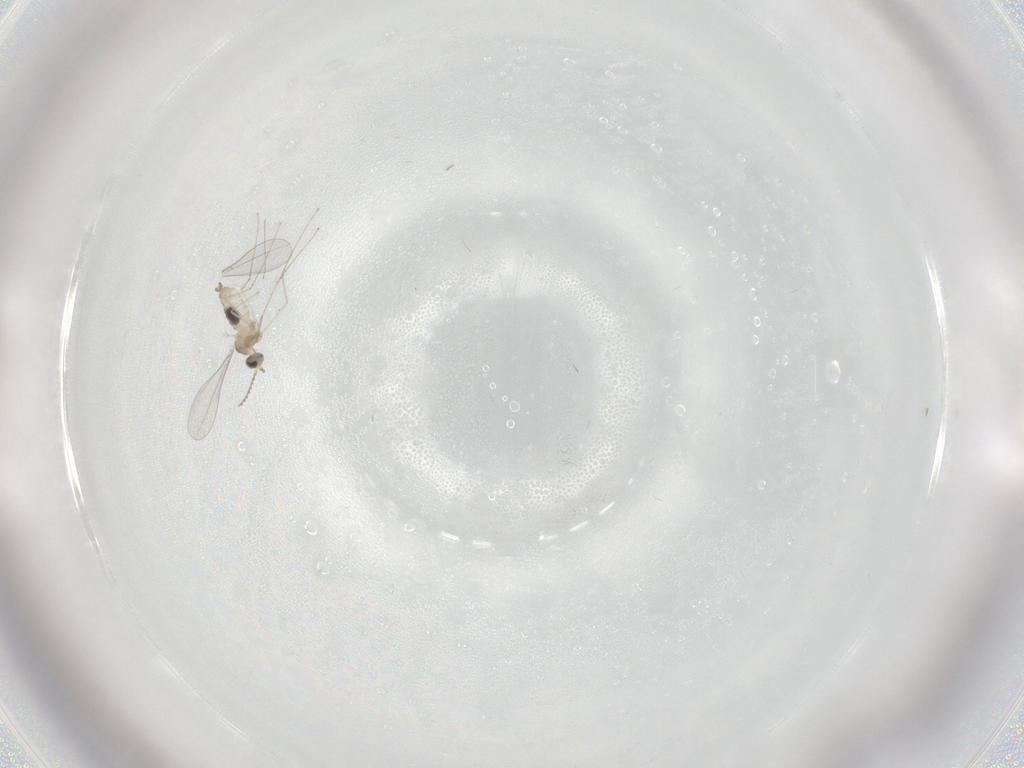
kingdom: Animalia
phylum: Arthropoda
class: Insecta
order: Diptera
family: Cecidomyiidae
